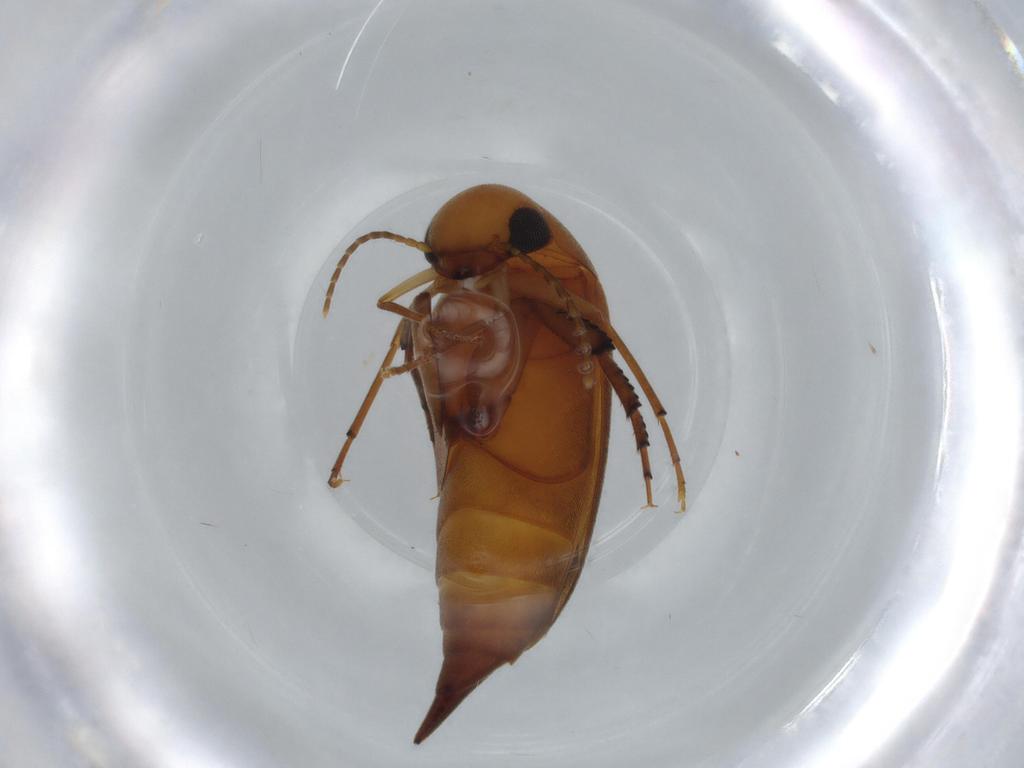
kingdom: Animalia
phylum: Arthropoda
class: Insecta
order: Coleoptera
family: Mordellidae
